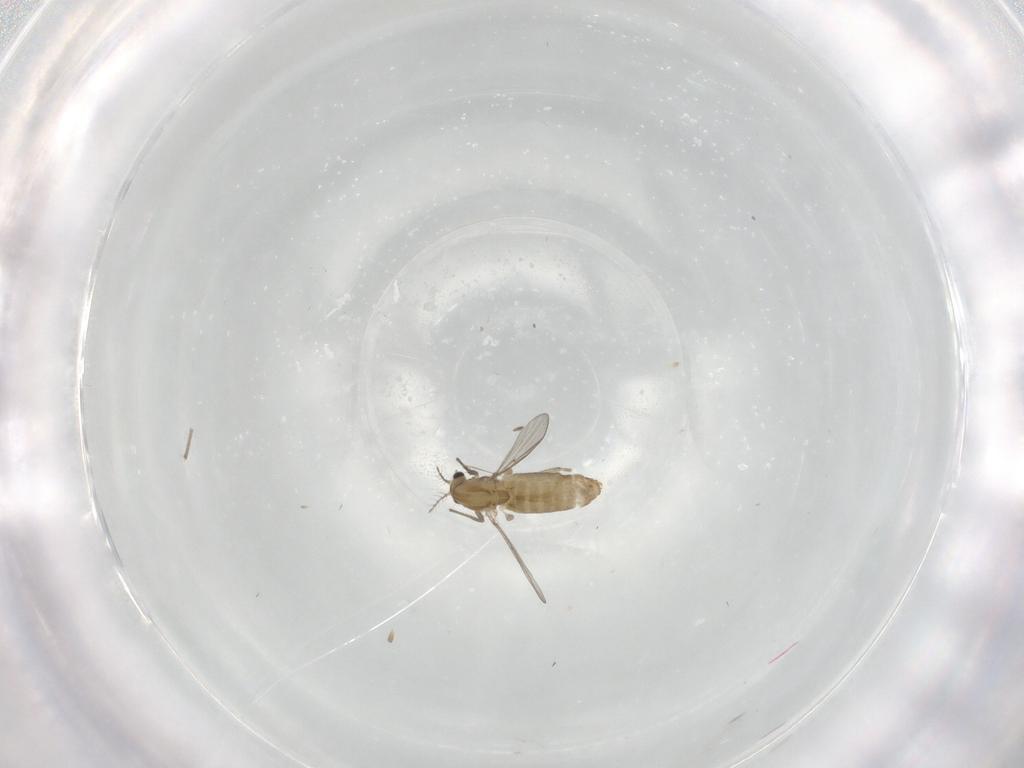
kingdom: Animalia
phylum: Arthropoda
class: Insecta
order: Diptera
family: Chironomidae
